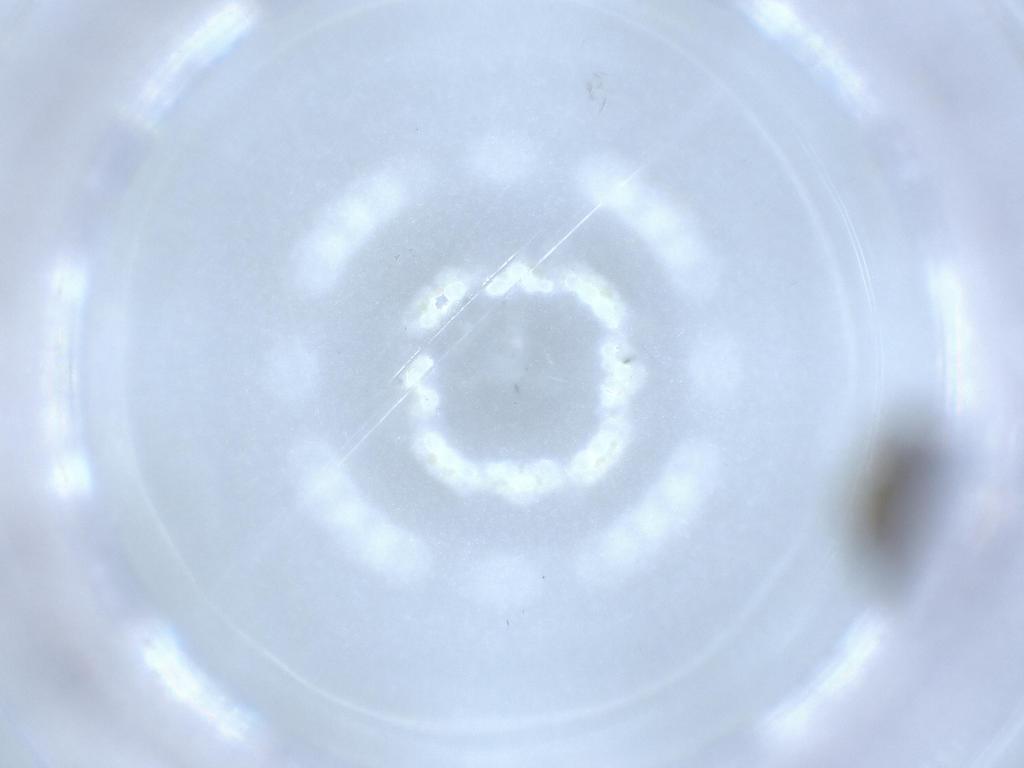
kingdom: Animalia
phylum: Arthropoda
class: Insecta
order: Diptera
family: Sciaridae
